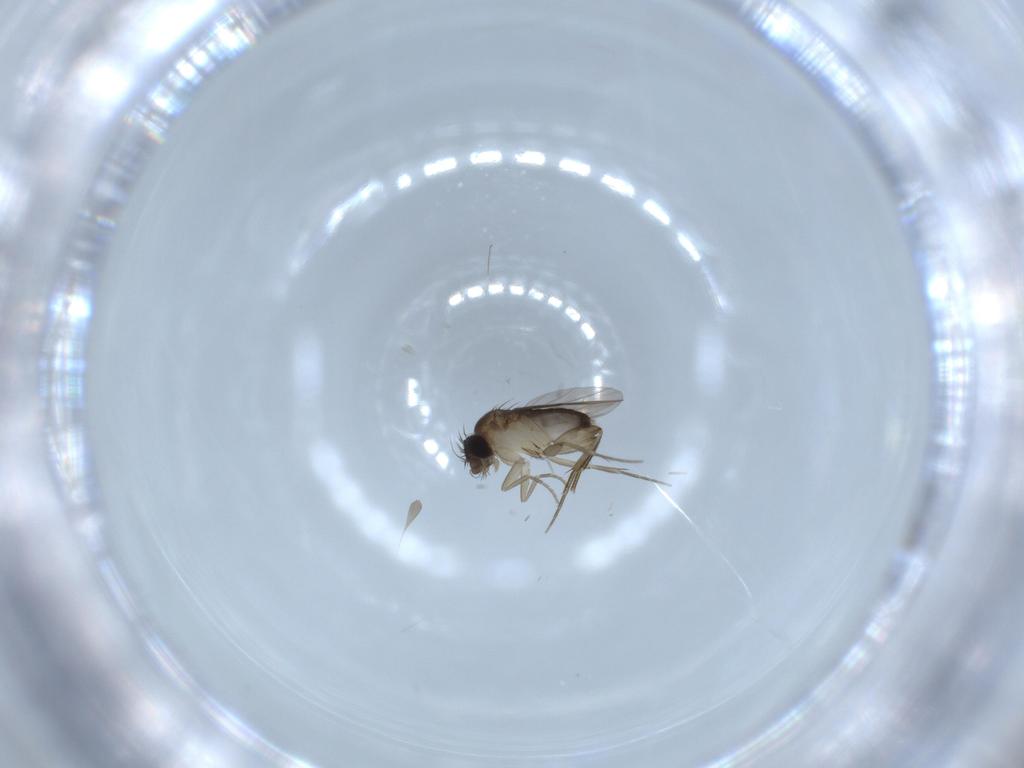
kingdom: Animalia
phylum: Arthropoda
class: Insecta
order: Diptera
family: Phoridae
